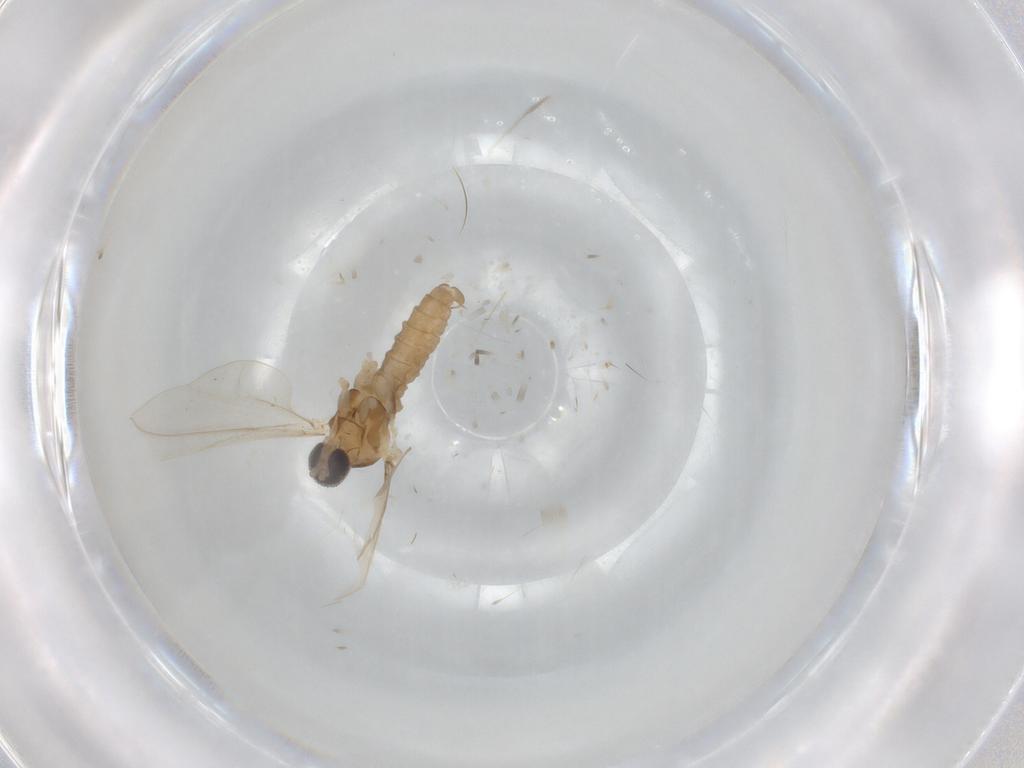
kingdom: Animalia
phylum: Arthropoda
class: Insecta
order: Diptera
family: Cecidomyiidae
